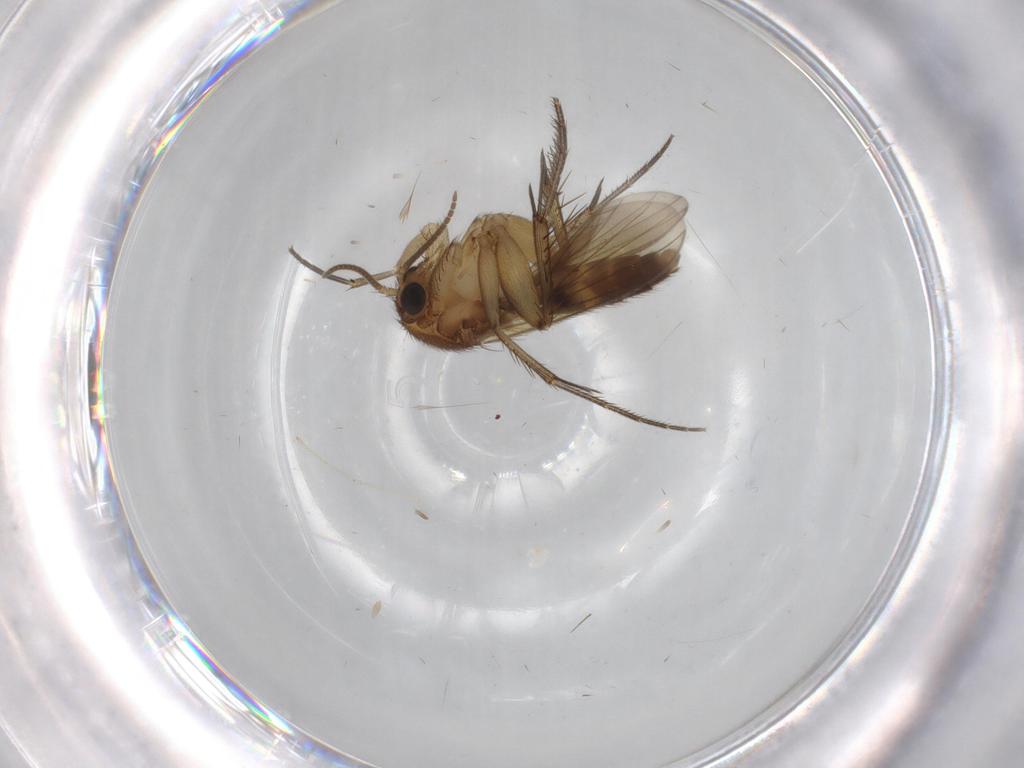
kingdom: Animalia
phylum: Arthropoda
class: Insecta
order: Diptera
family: Mycetophilidae
